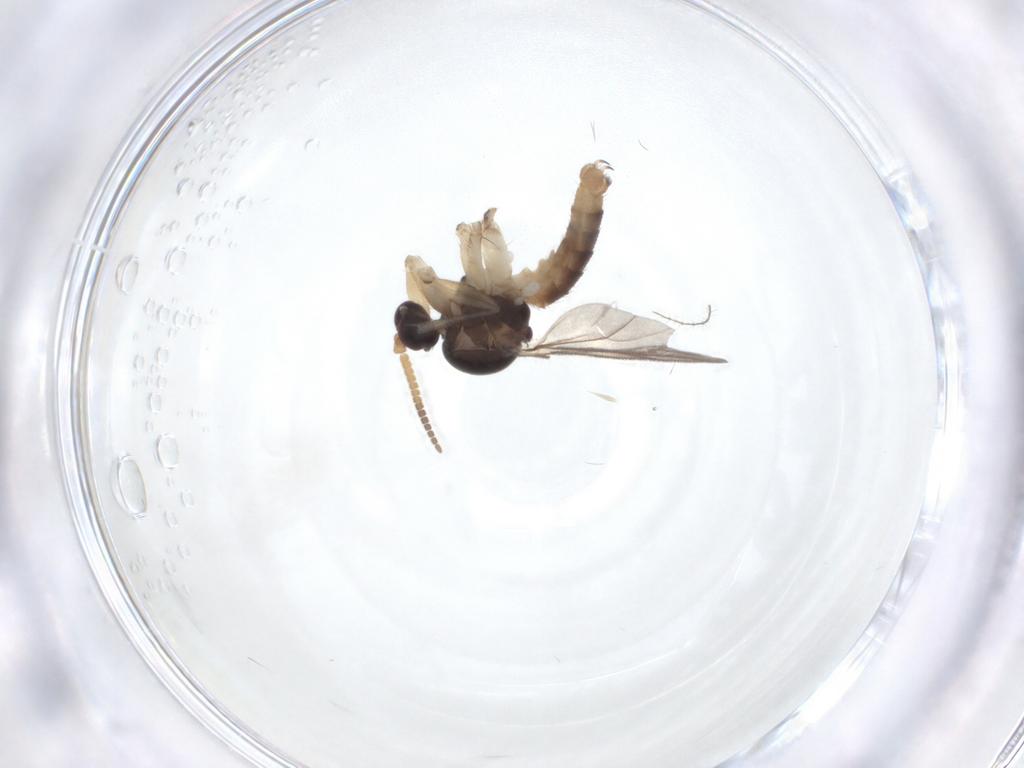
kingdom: Animalia
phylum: Arthropoda
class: Insecta
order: Diptera
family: Mycetophilidae
